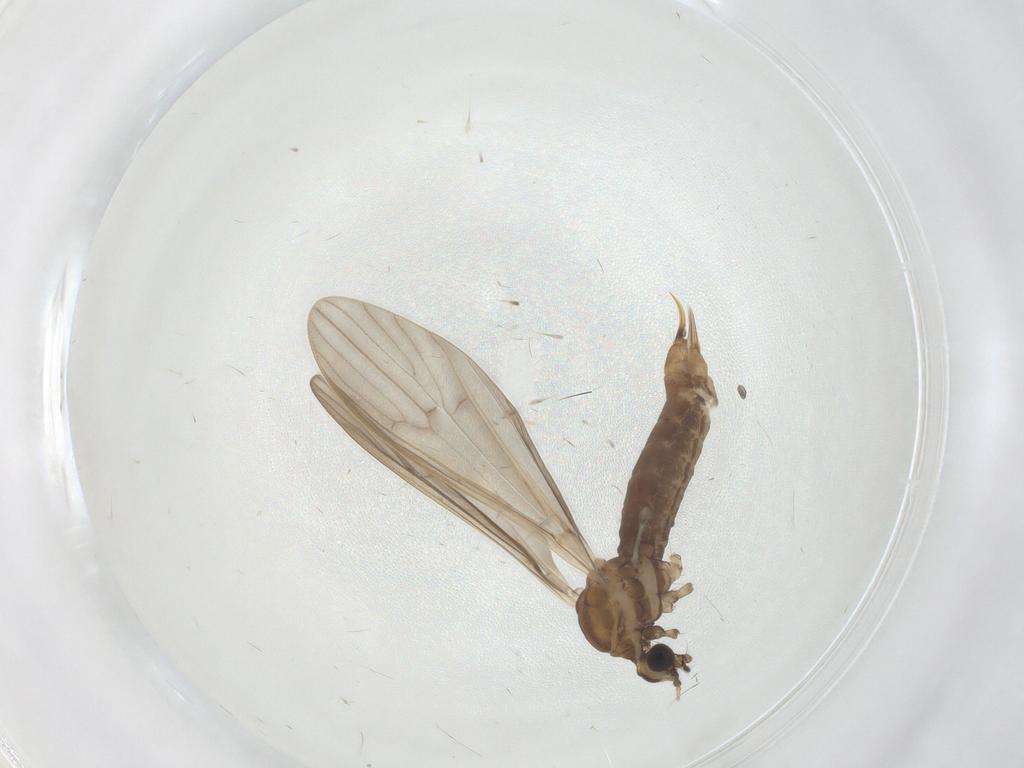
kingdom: Animalia
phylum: Arthropoda
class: Insecta
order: Diptera
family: Limoniidae
